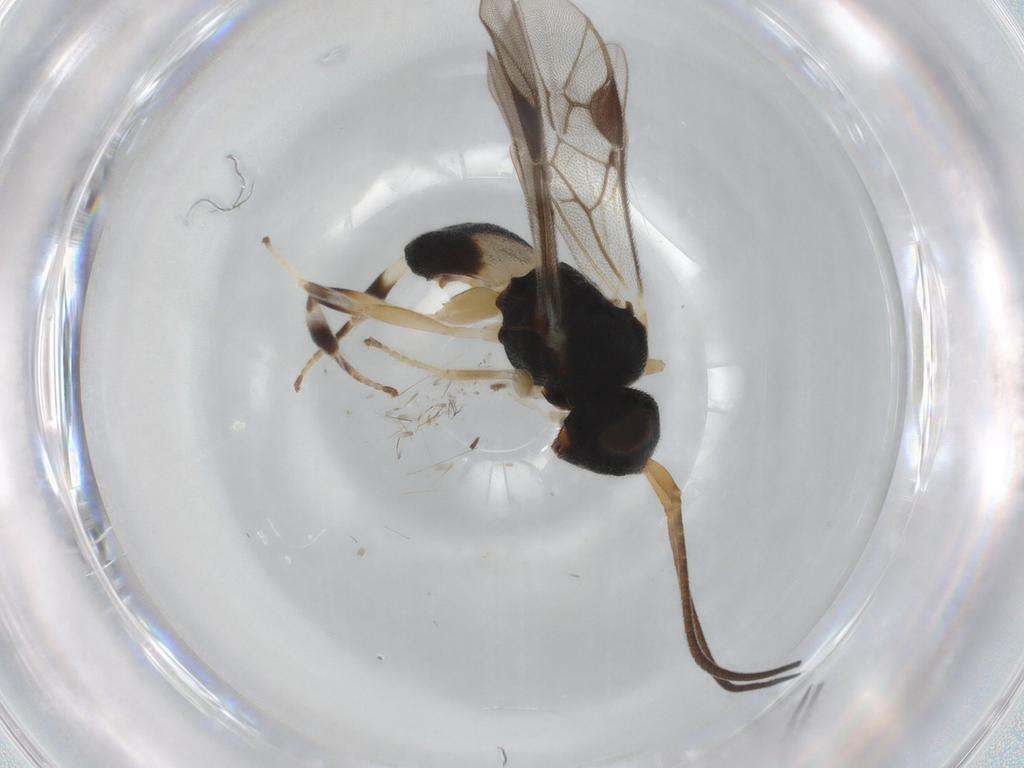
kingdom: Animalia
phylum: Arthropoda
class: Insecta
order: Hymenoptera
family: Braconidae
